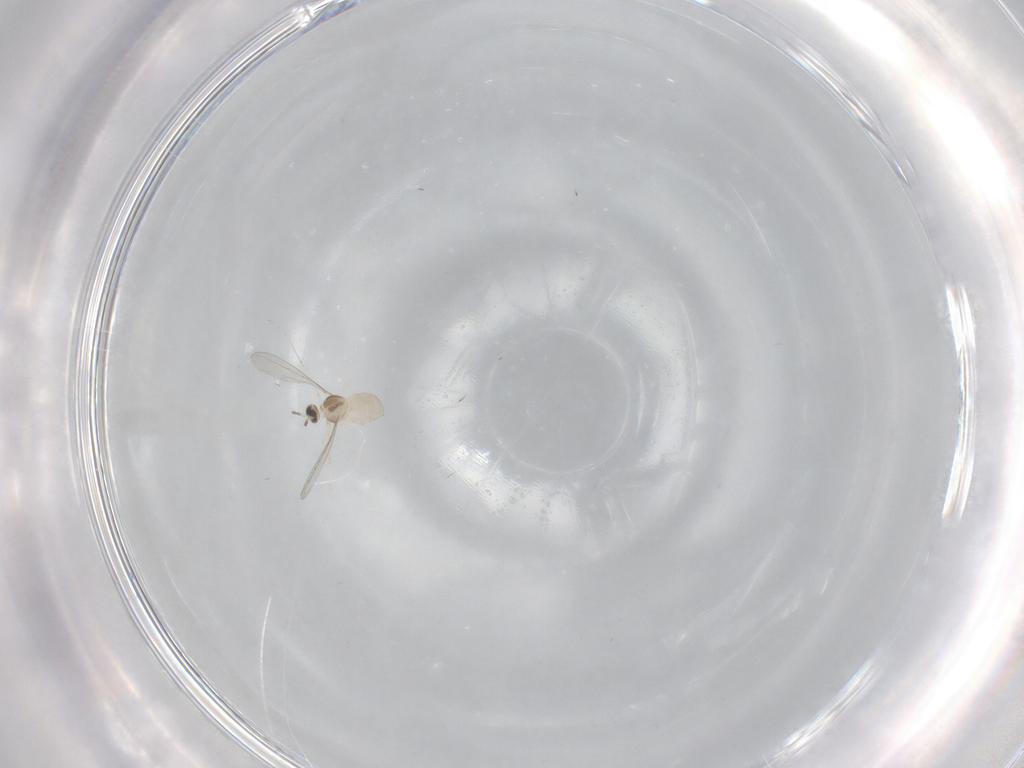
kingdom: Animalia
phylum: Arthropoda
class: Insecta
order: Diptera
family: Cecidomyiidae
